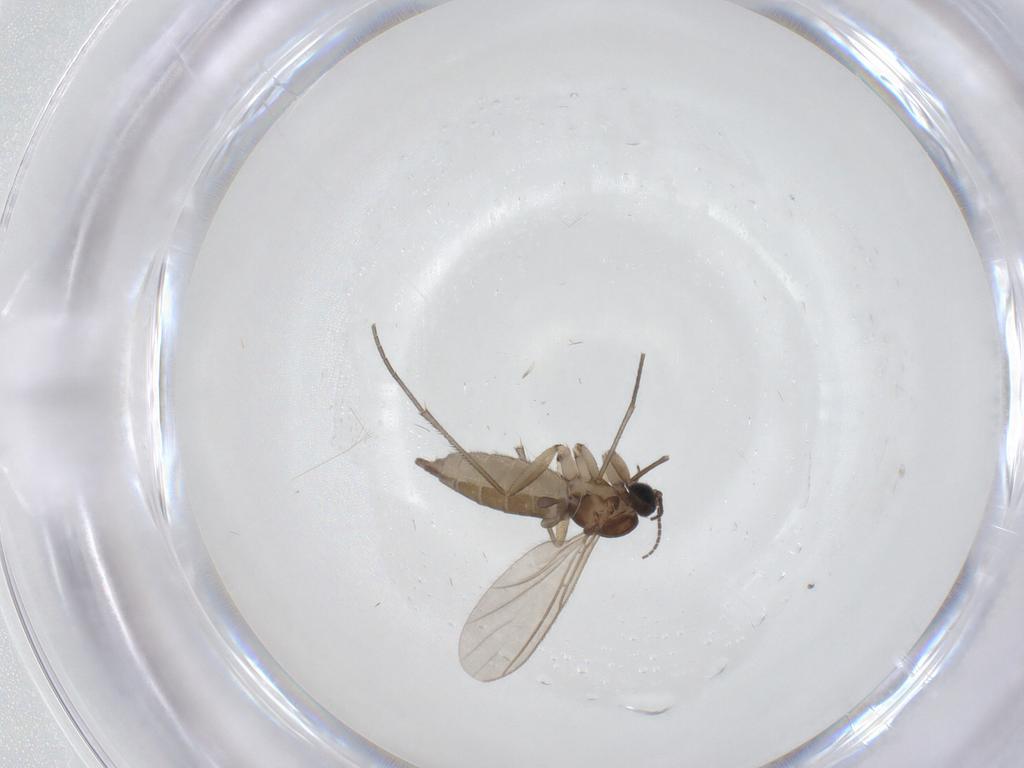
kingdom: Animalia
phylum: Arthropoda
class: Insecta
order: Diptera
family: Sciaridae
